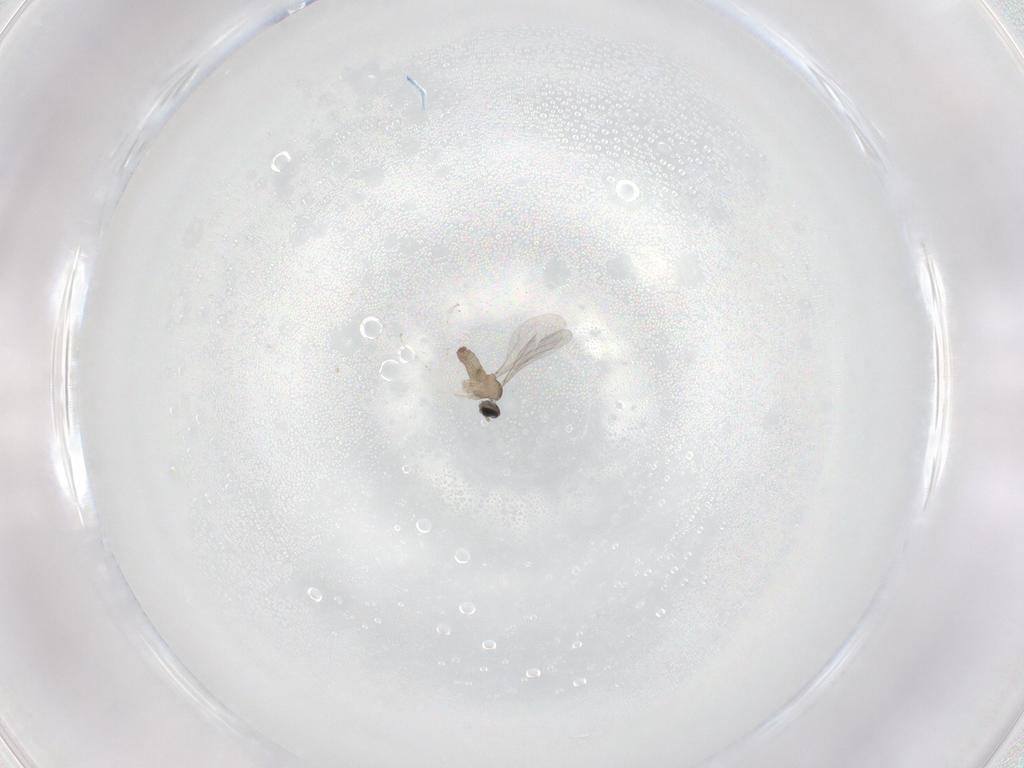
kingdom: Animalia
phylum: Arthropoda
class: Insecta
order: Diptera
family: Cecidomyiidae
